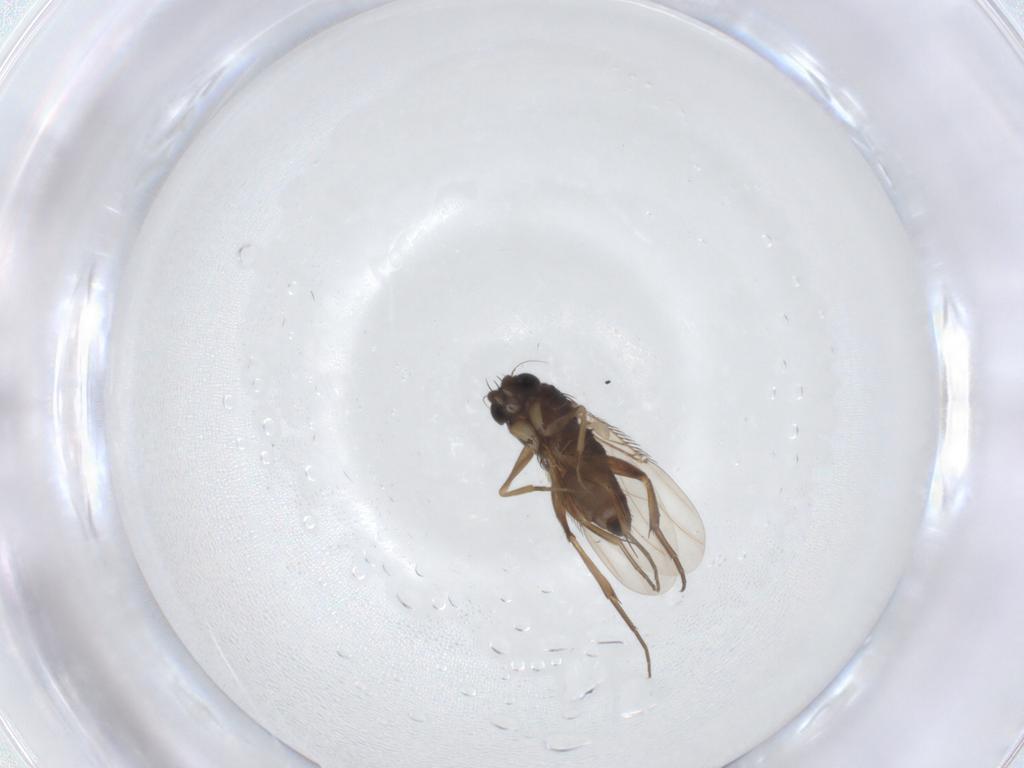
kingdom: Animalia
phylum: Arthropoda
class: Insecta
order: Diptera
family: Phoridae
